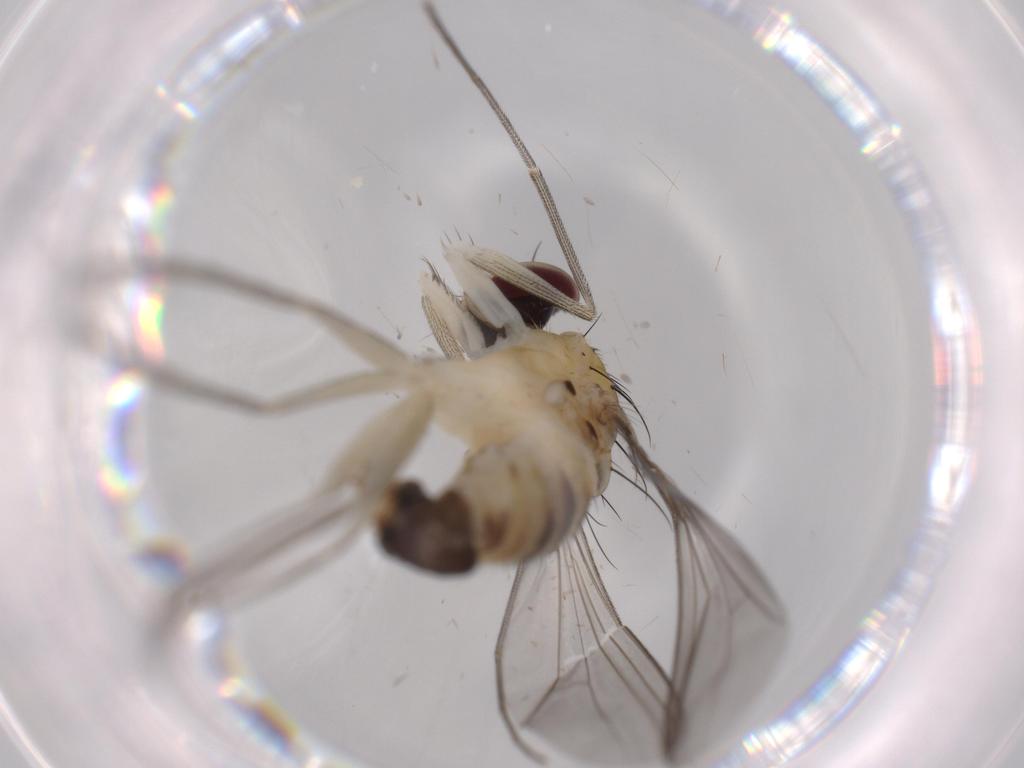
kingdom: Animalia
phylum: Arthropoda
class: Insecta
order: Diptera
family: Dolichopodidae
